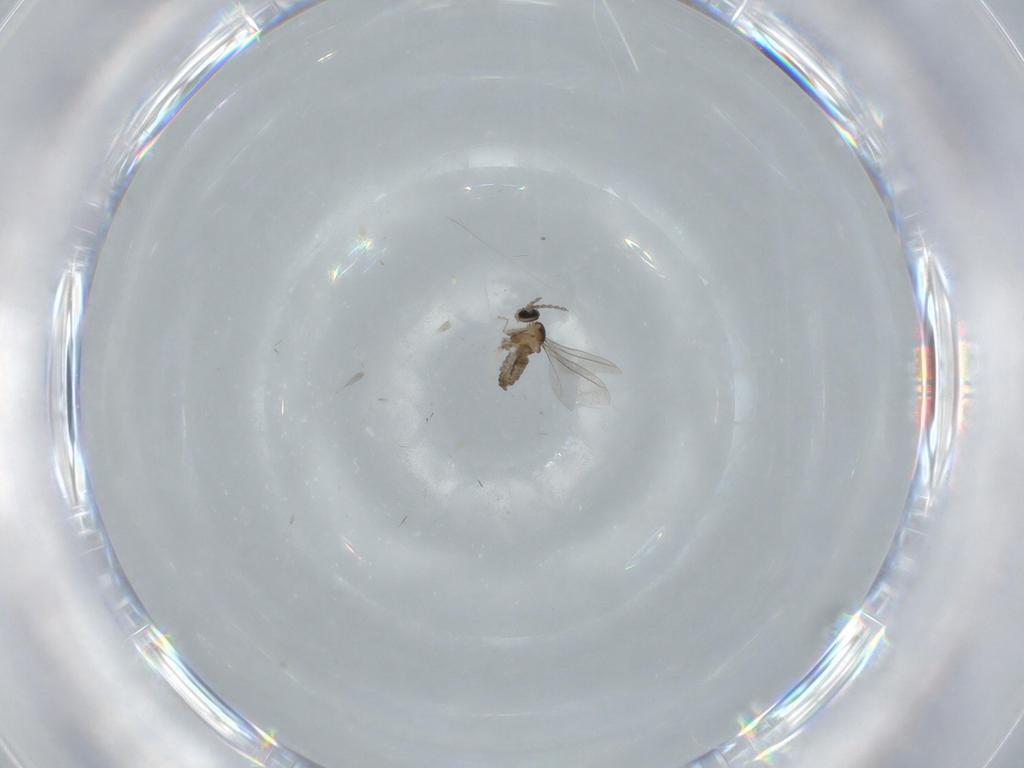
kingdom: Animalia
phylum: Arthropoda
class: Insecta
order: Diptera
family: Cecidomyiidae
